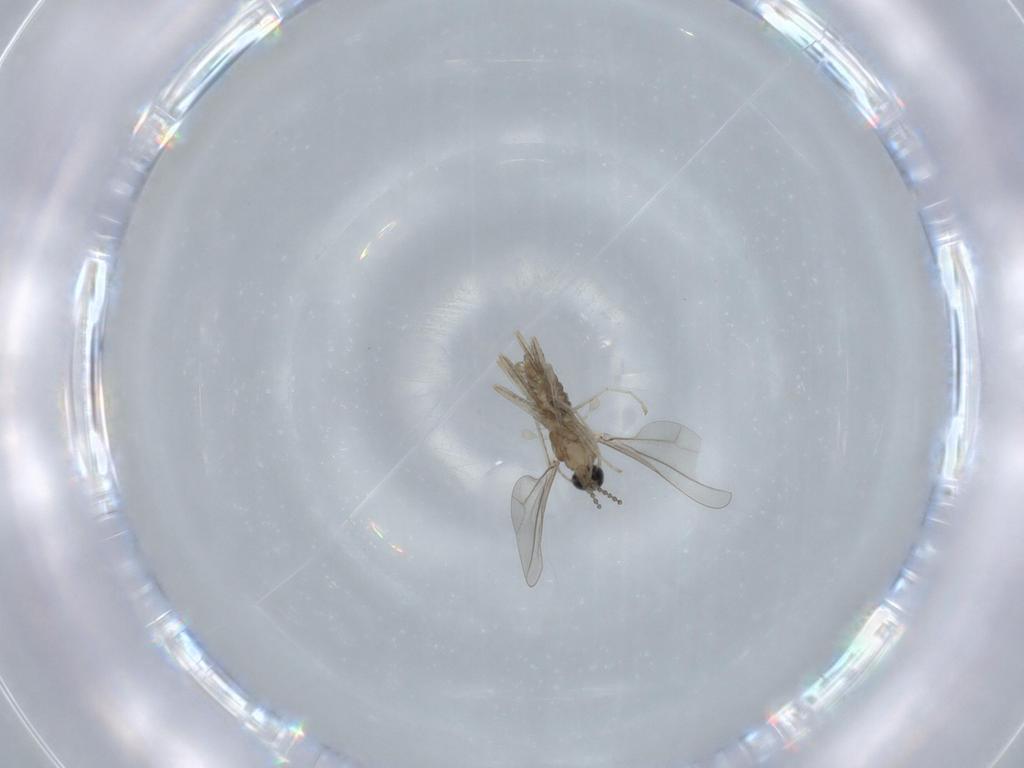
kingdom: Animalia
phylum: Arthropoda
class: Insecta
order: Diptera
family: Cecidomyiidae
